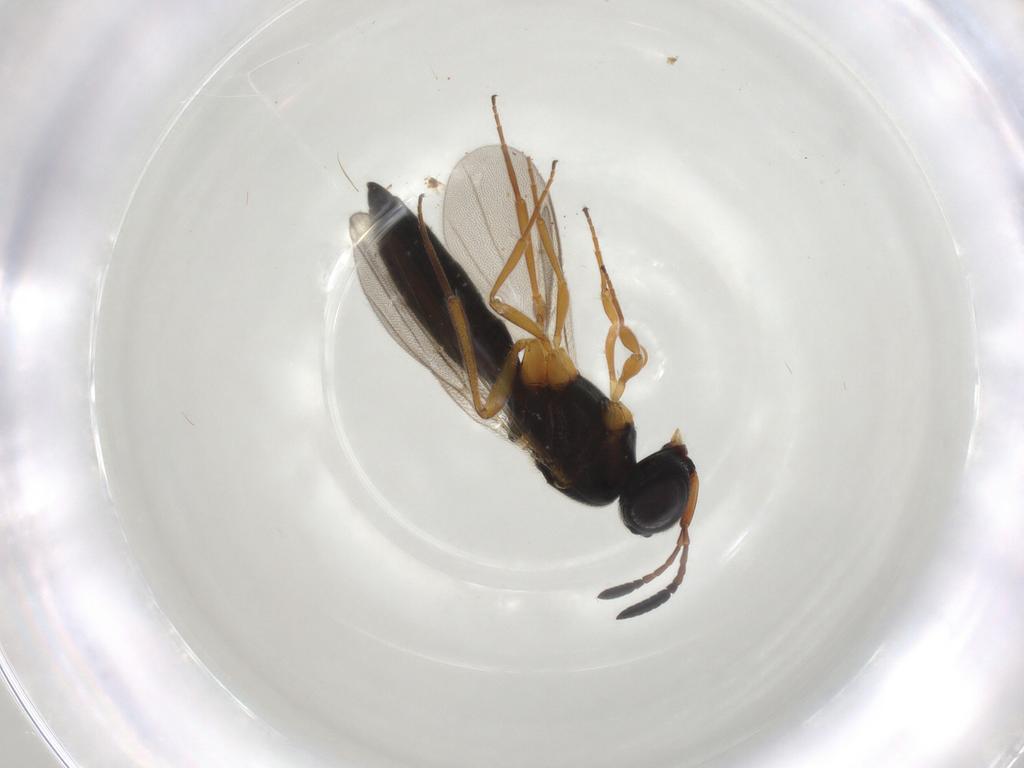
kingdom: Animalia
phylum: Arthropoda
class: Insecta
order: Hymenoptera
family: Scelionidae
